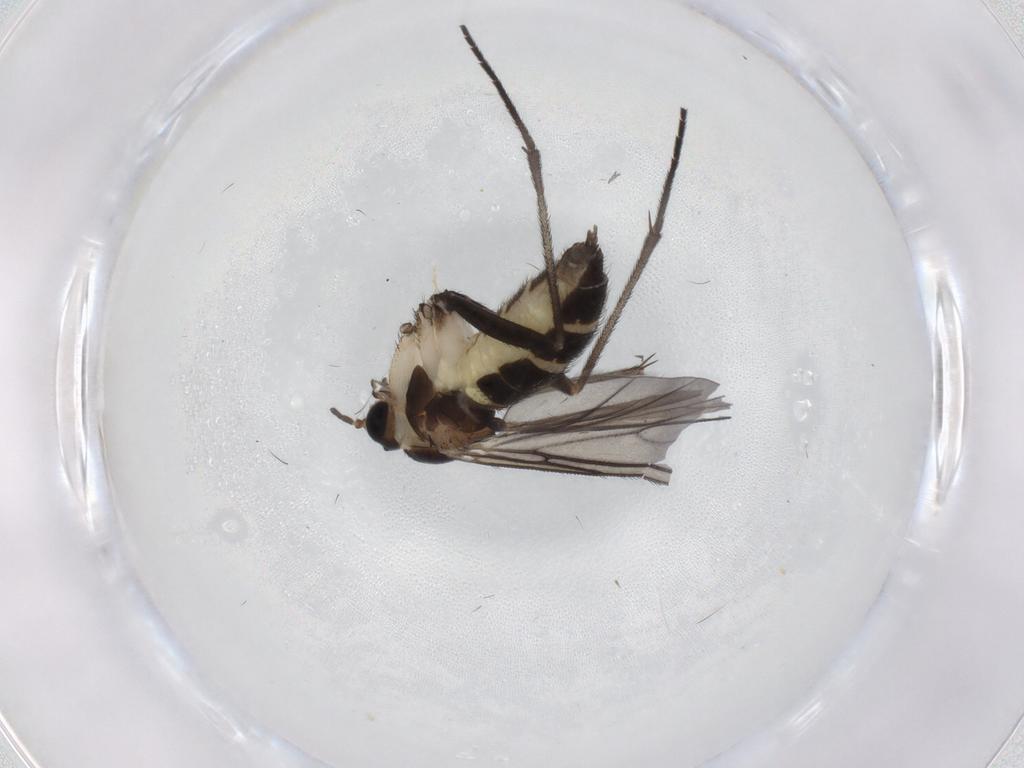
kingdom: Animalia
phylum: Arthropoda
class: Insecta
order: Diptera
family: Sciaridae
